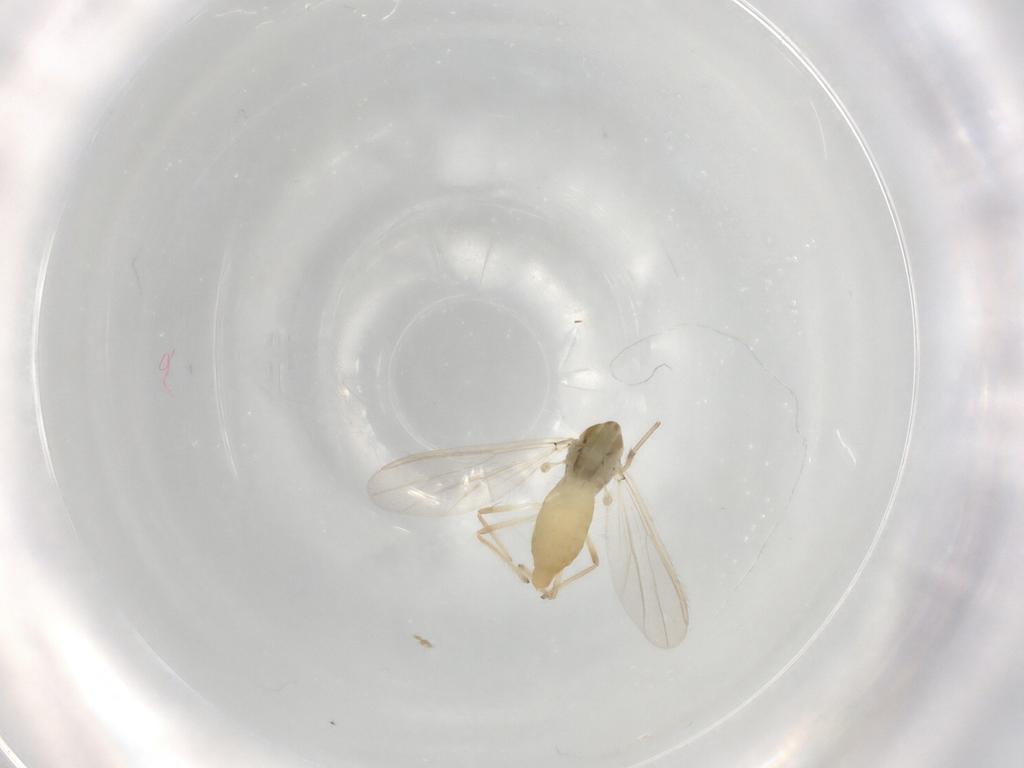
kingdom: Animalia
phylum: Arthropoda
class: Insecta
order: Diptera
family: Chironomidae
